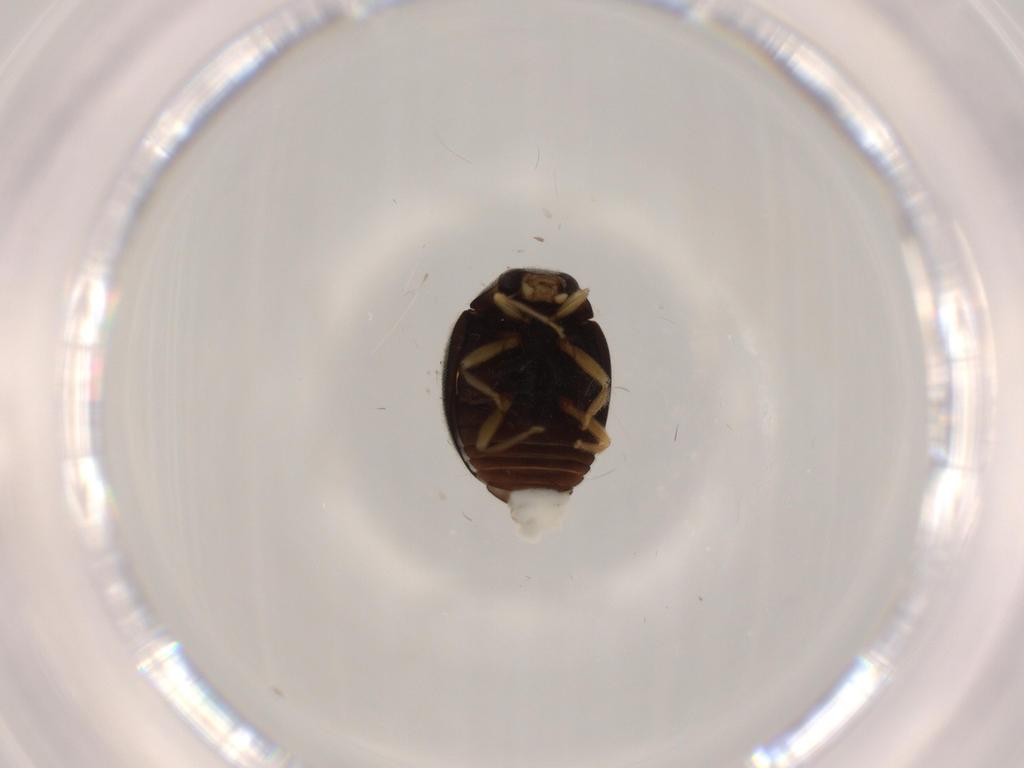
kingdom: Animalia
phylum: Arthropoda
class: Insecta
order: Coleoptera
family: Coccinellidae
